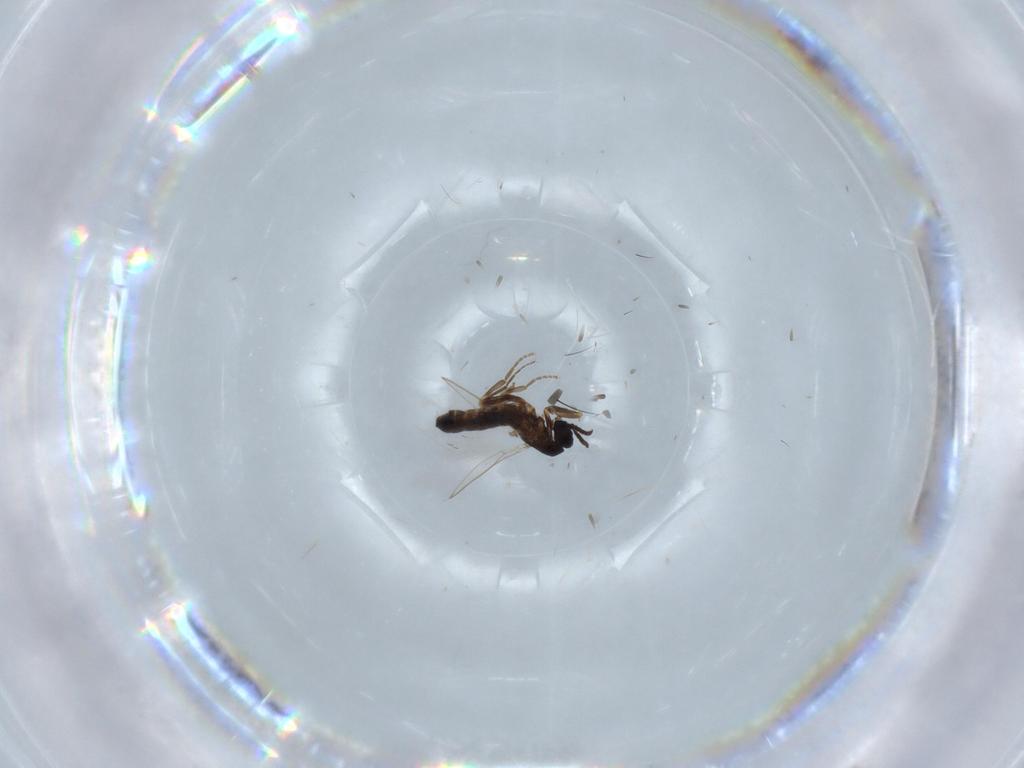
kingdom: Animalia
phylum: Arthropoda
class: Insecta
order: Diptera
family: Scatopsidae
